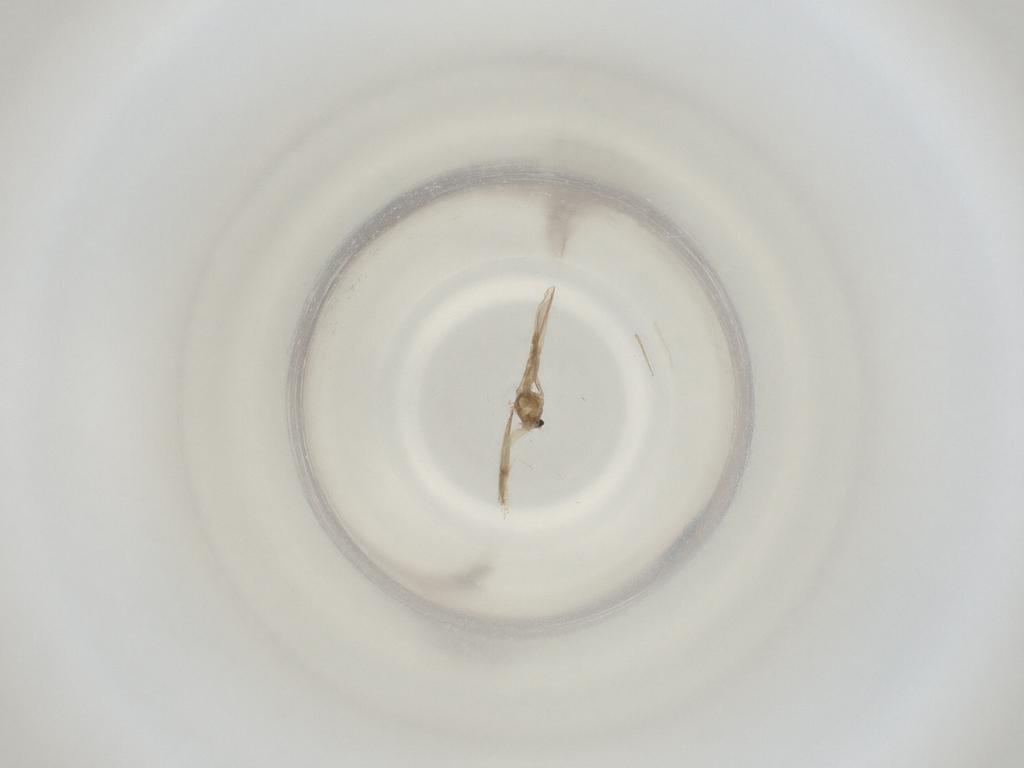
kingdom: Animalia
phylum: Arthropoda
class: Insecta
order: Diptera
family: Cecidomyiidae
